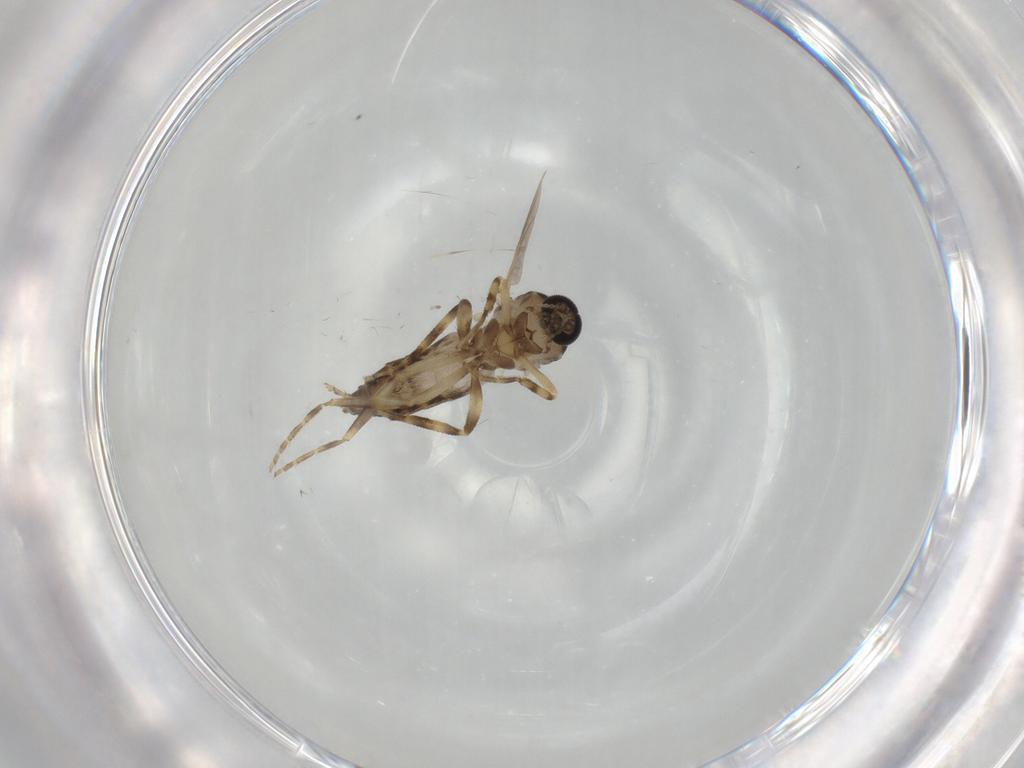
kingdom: Animalia
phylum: Arthropoda
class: Insecta
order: Diptera
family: Ceratopogonidae
